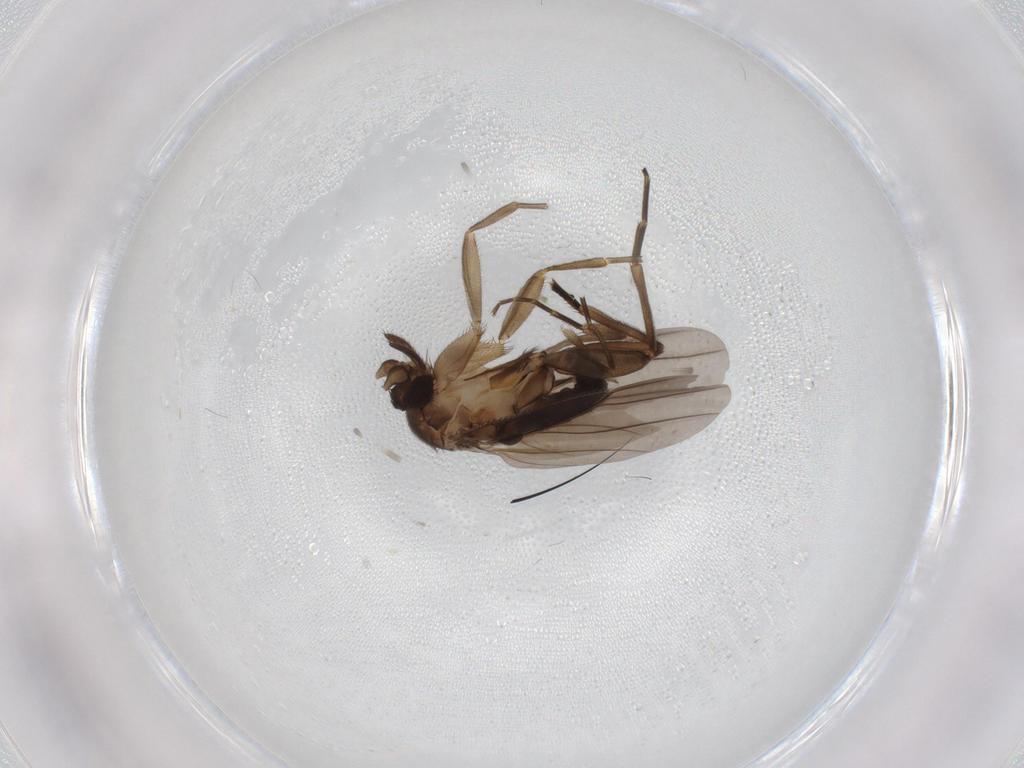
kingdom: Animalia
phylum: Arthropoda
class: Insecta
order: Diptera
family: Phoridae
